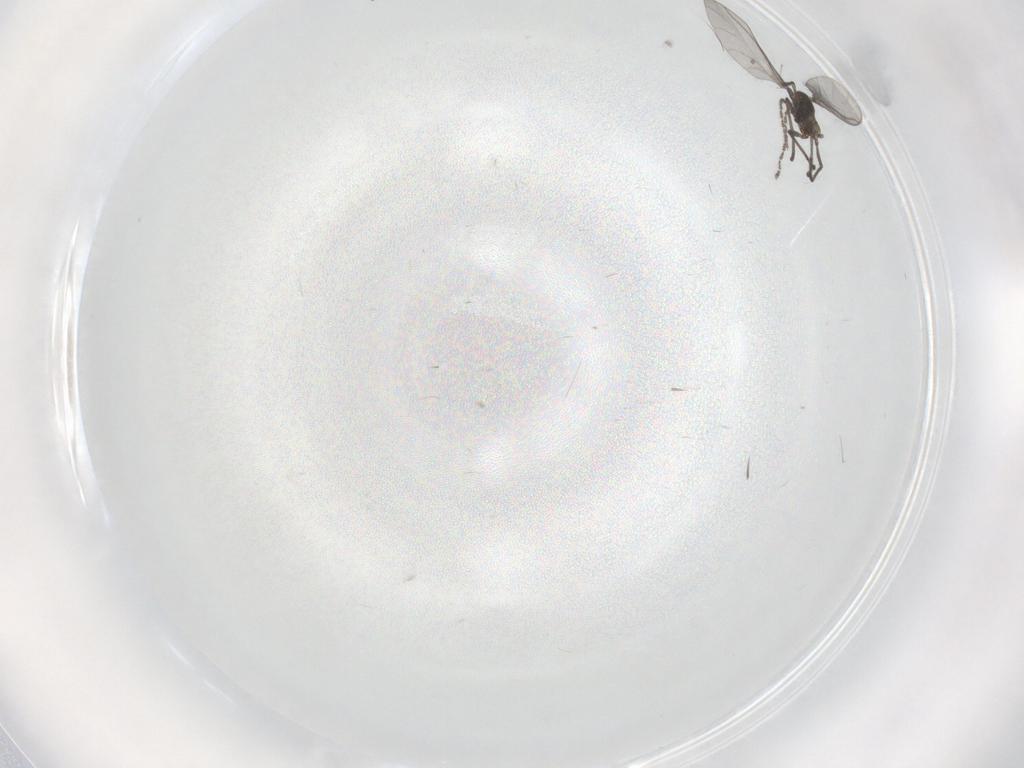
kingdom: Animalia
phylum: Arthropoda
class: Insecta
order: Diptera
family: Sciaridae
